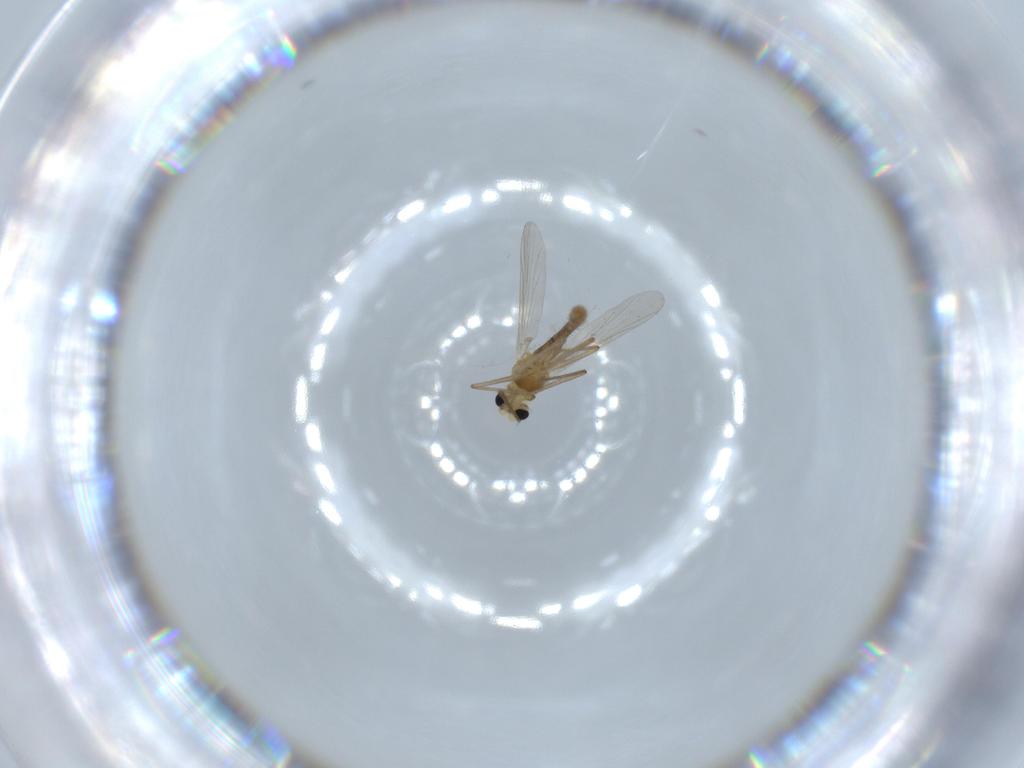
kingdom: Animalia
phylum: Arthropoda
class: Insecta
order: Diptera
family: Chironomidae
